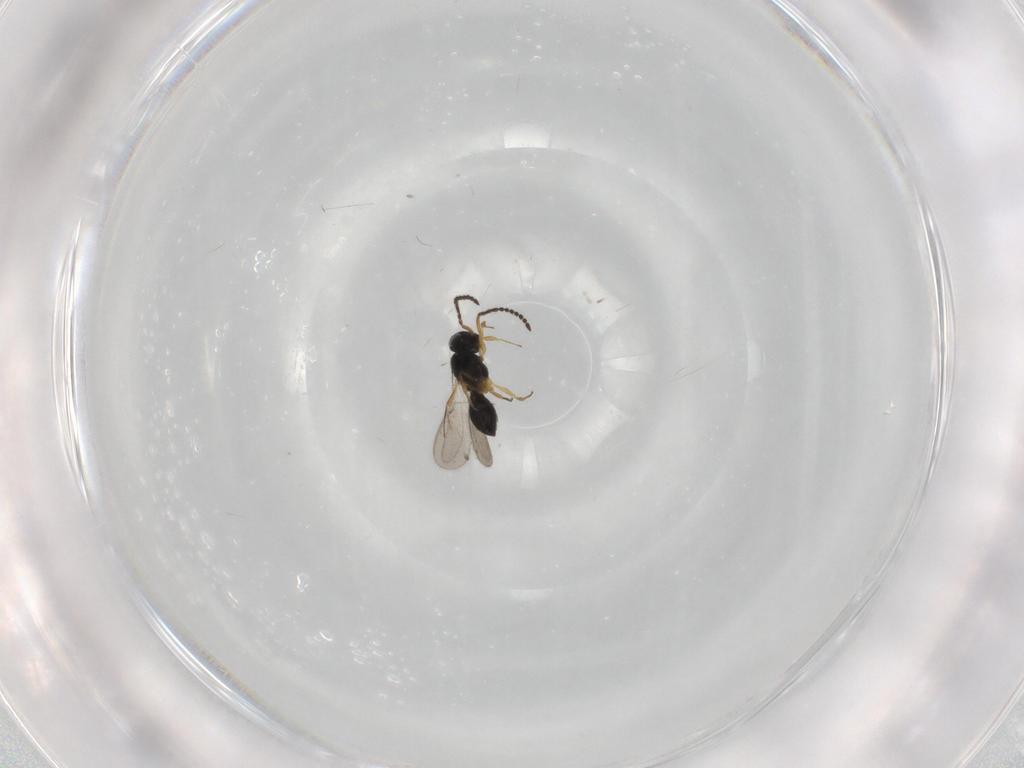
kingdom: Animalia
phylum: Arthropoda
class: Insecta
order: Hymenoptera
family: Scelionidae
